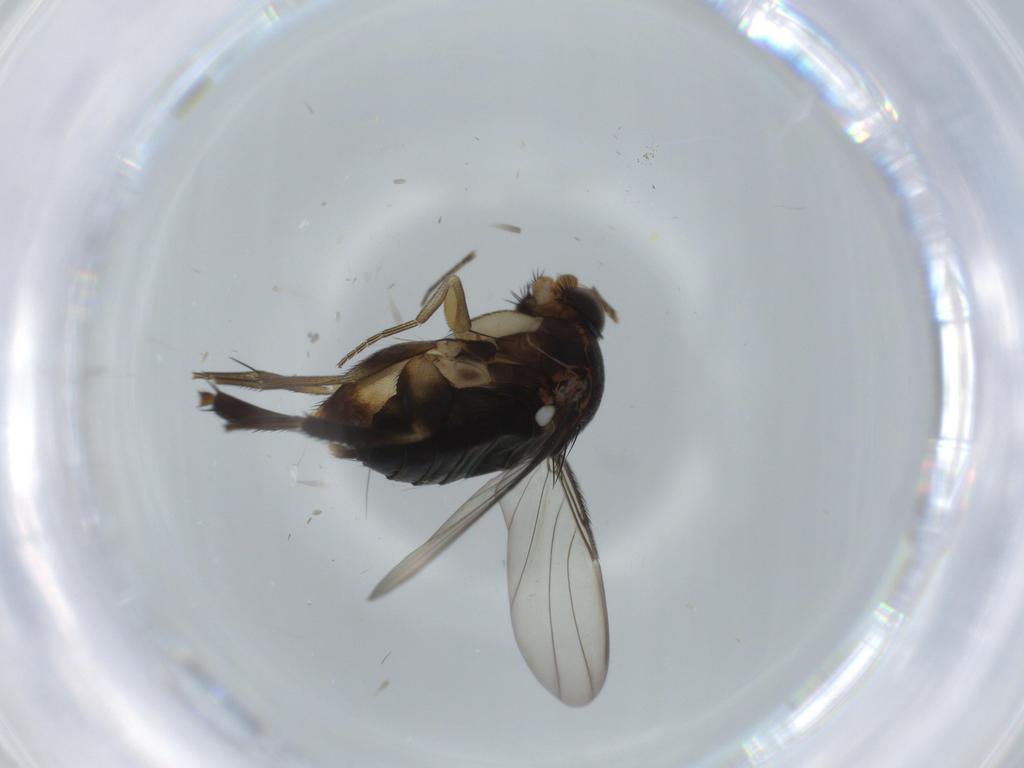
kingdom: Animalia
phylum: Arthropoda
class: Insecta
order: Diptera
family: Phoridae
